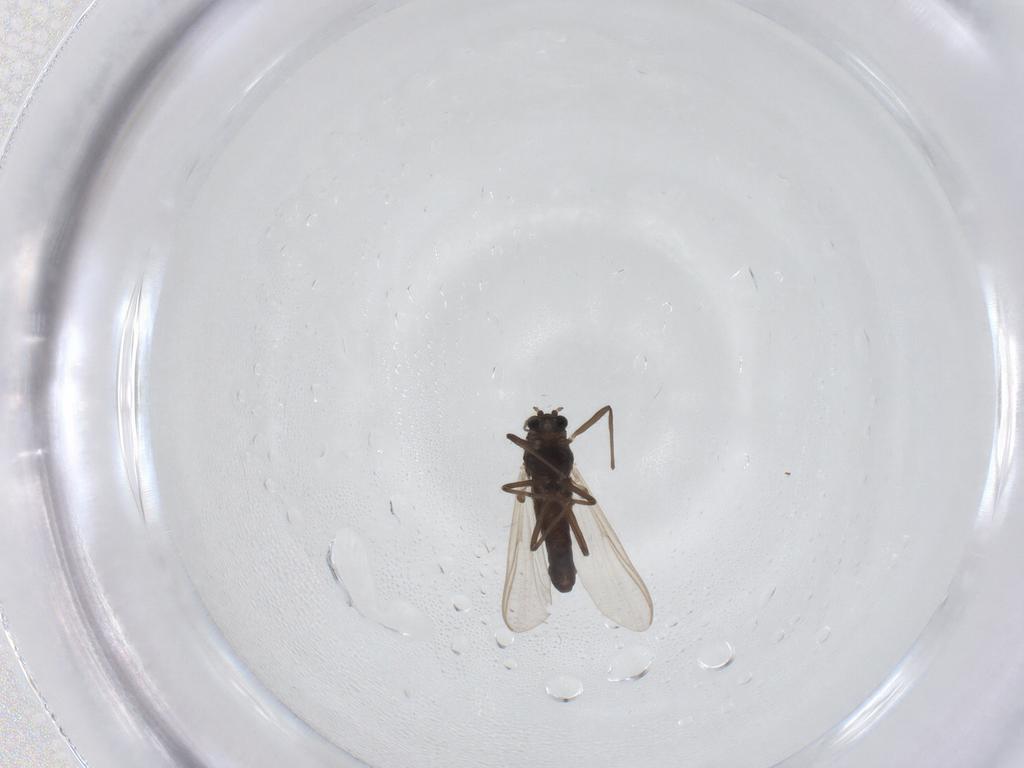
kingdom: Animalia
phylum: Arthropoda
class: Insecta
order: Diptera
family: Chironomidae
